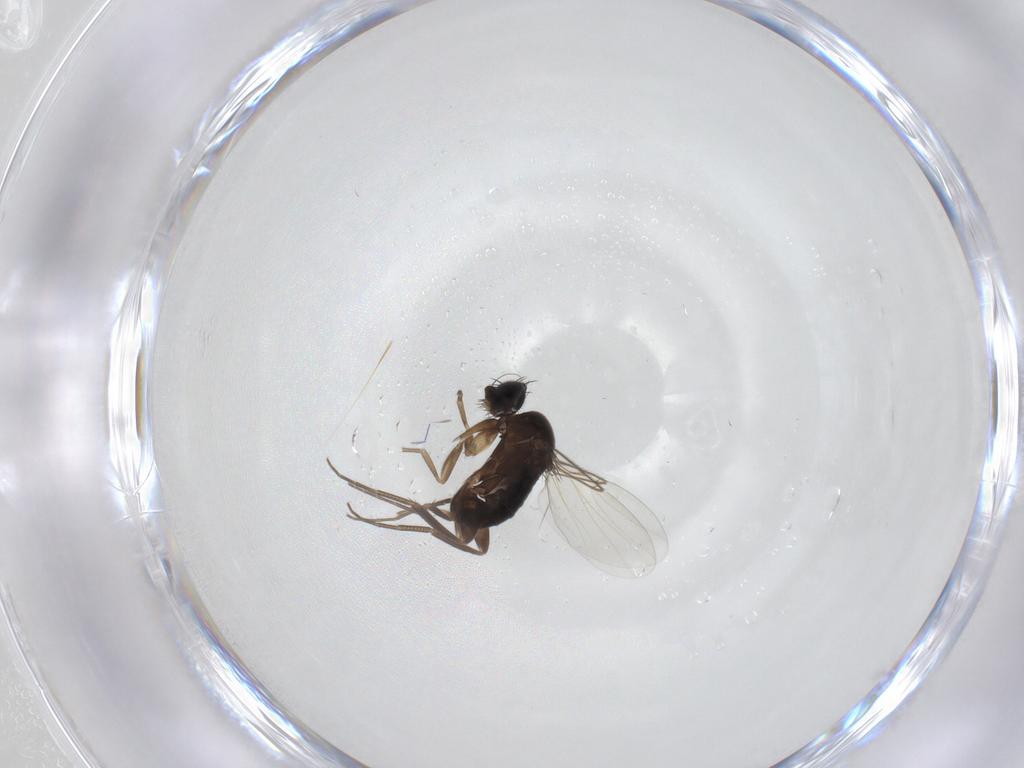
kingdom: Animalia
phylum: Arthropoda
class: Insecta
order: Diptera
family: Phoridae
